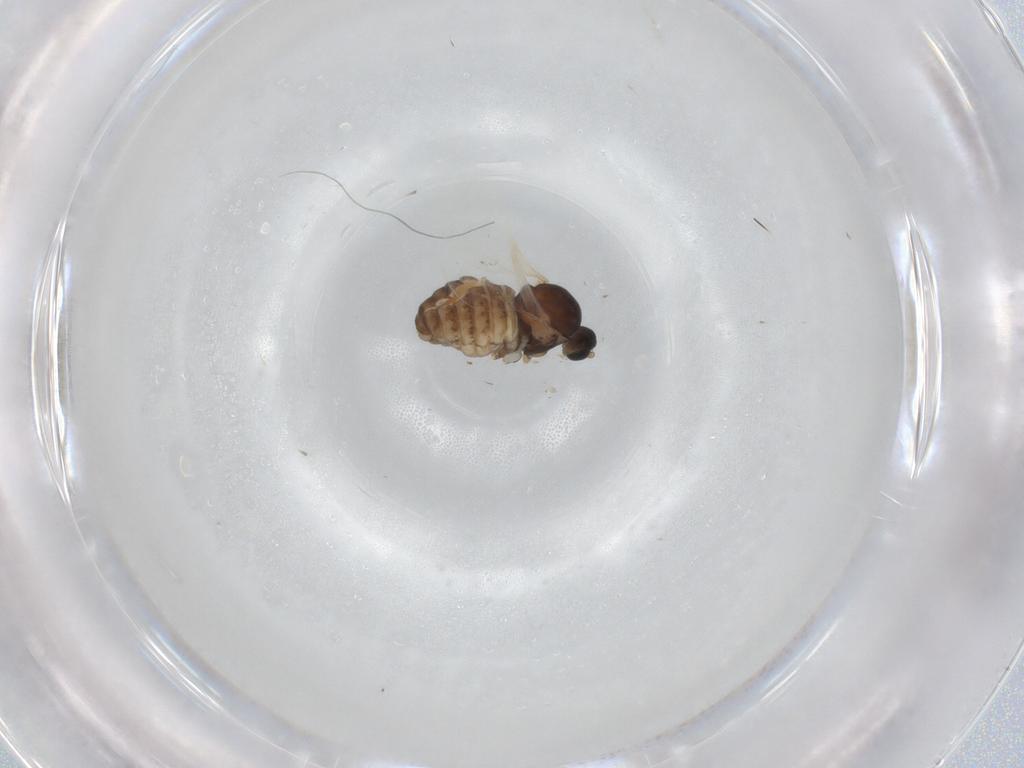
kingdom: Animalia
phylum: Arthropoda
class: Insecta
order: Diptera
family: Cecidomyiidae
